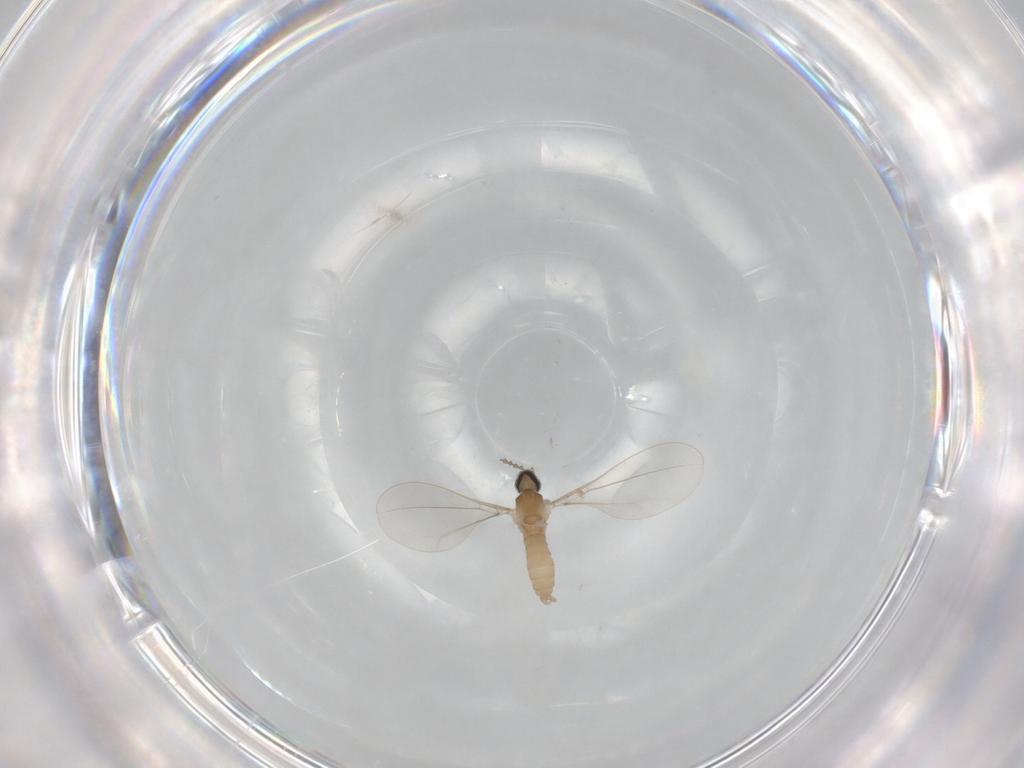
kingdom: Animalia
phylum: Arthropoda
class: Insecta
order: Diptera
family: Cecidomyiidae
